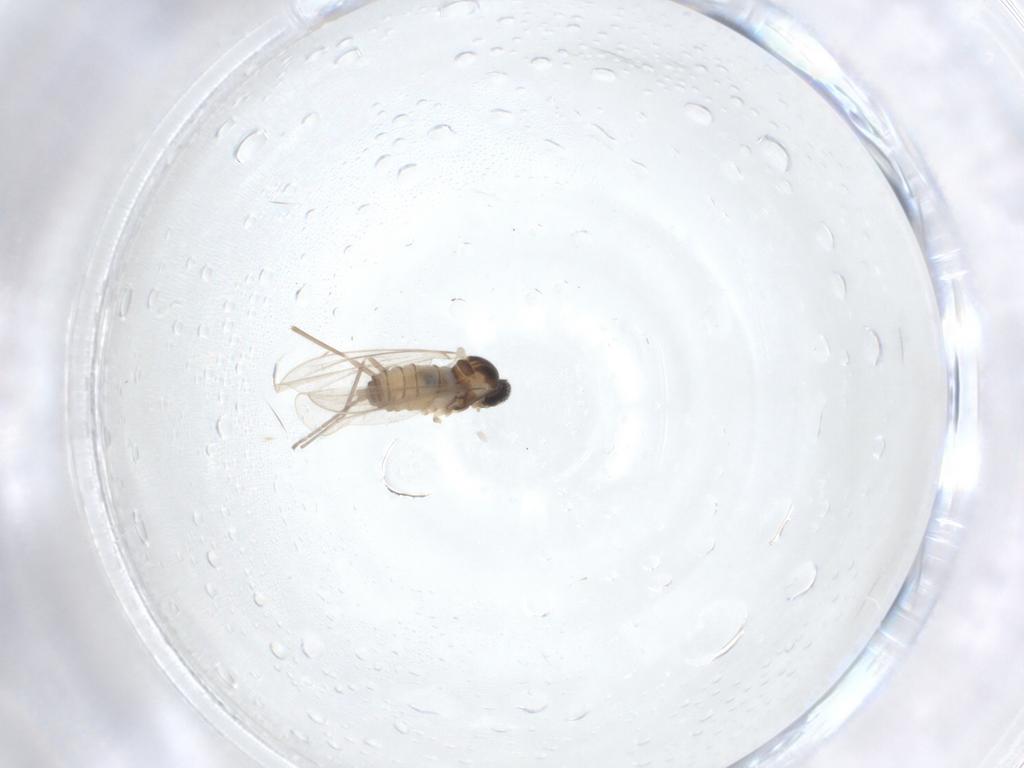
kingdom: Animalia
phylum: Arthropoda
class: Insecta
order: Diptera
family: Cecidomyiidae
